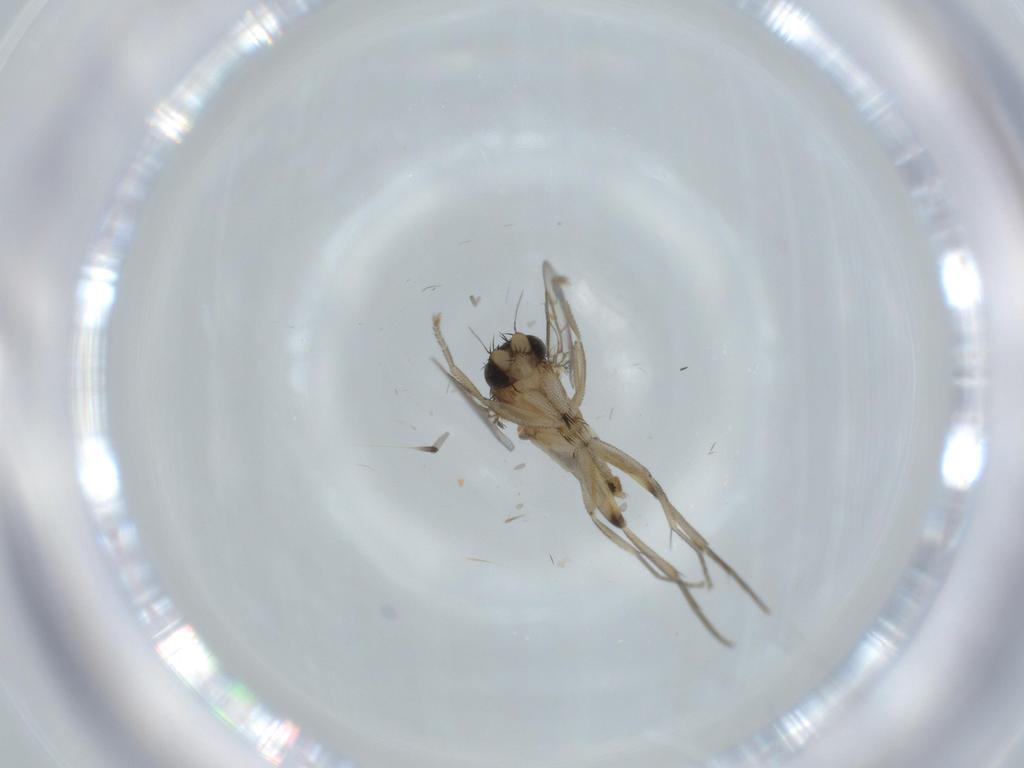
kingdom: Animalia
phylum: Arthropoda
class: Insecta
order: Diptera
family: Phoridae
